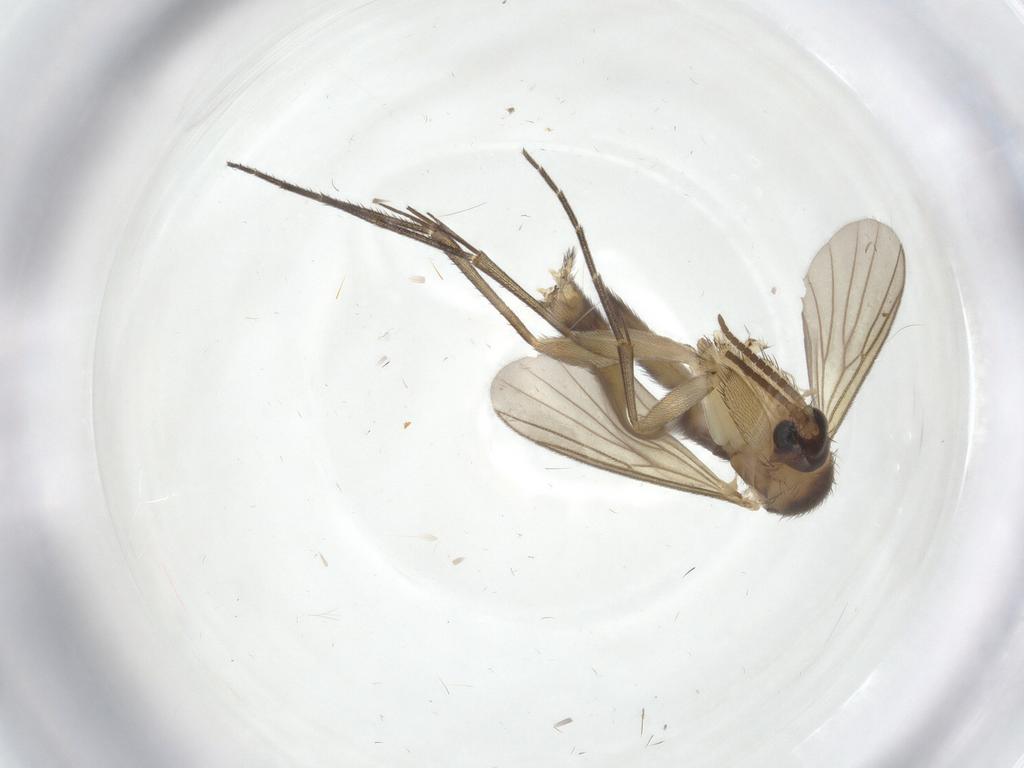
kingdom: Animalia
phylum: Arthropoda
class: Insecta
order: Diptera
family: Mycetophilidae
